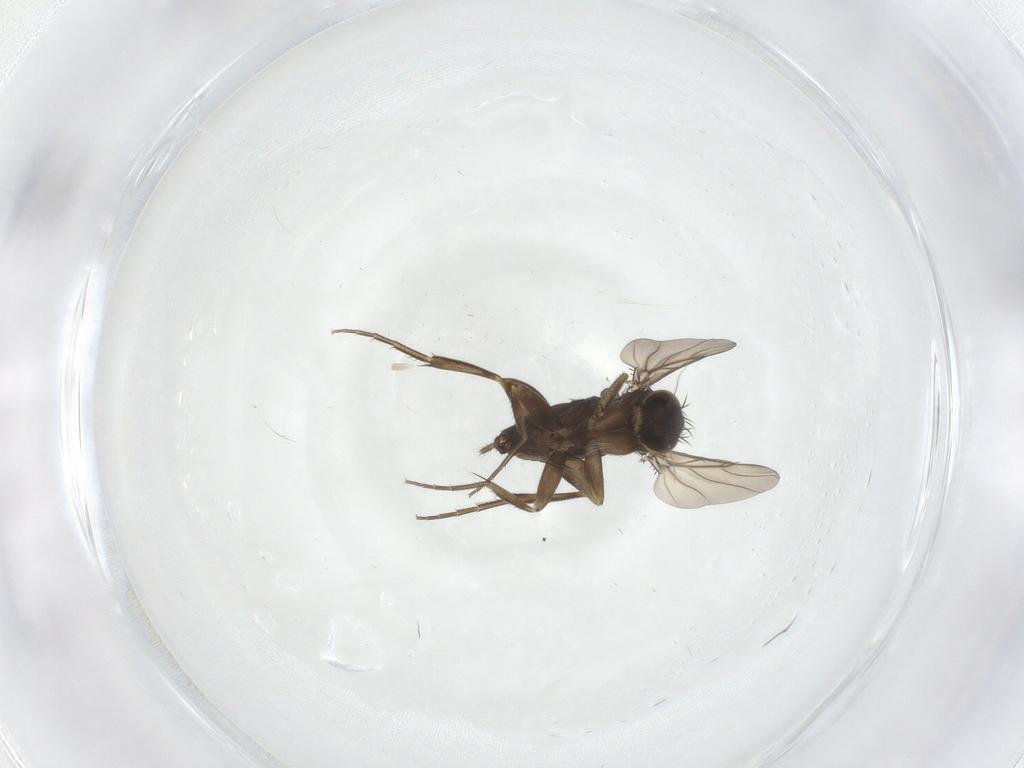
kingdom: Animalia
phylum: Arthropoda
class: Insecta
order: Diptera
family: Phoridae
